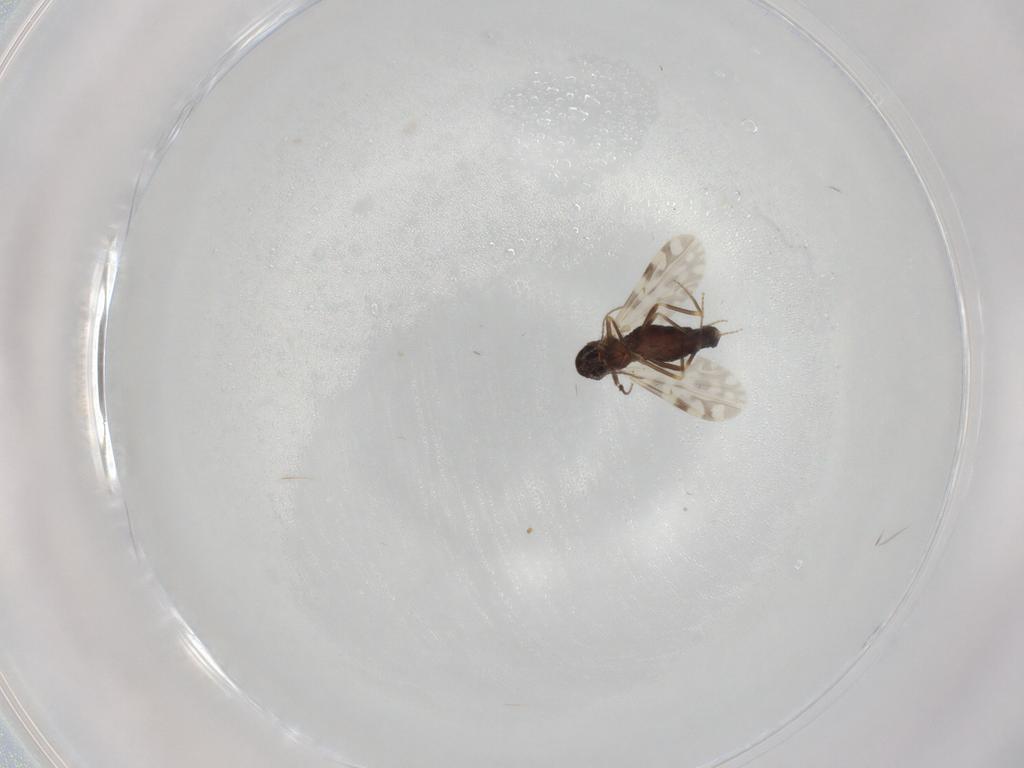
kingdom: Animalia
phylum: Arthropoda
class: Insecta
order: Diptera
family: Ceratopogonidae
